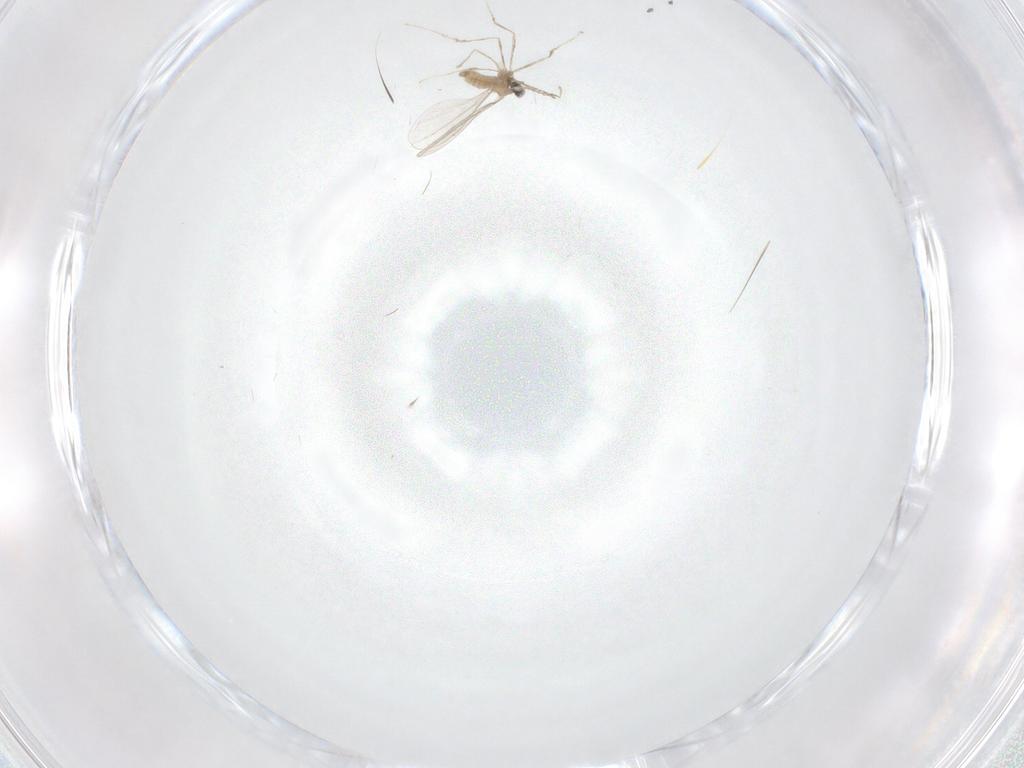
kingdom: Animalia
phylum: Arthropoda
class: Insecta
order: Diptera
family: Cecidomyiidae
